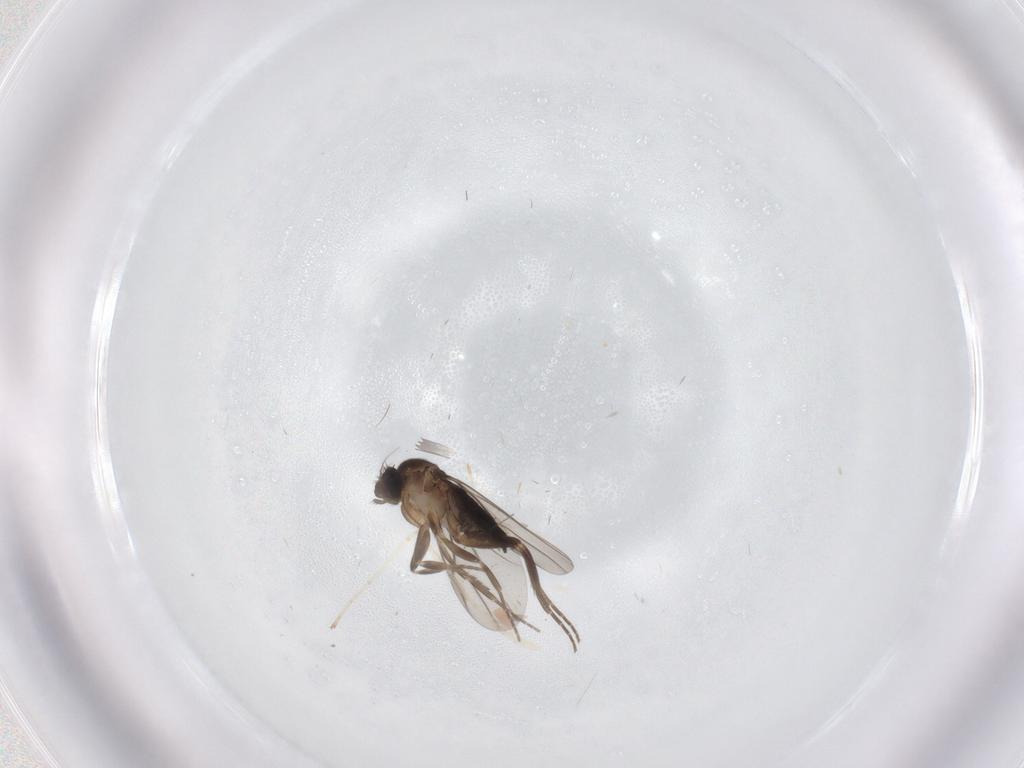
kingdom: Animalia
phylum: Arthropoda
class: Insecta
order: Diptera
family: Phoridae
